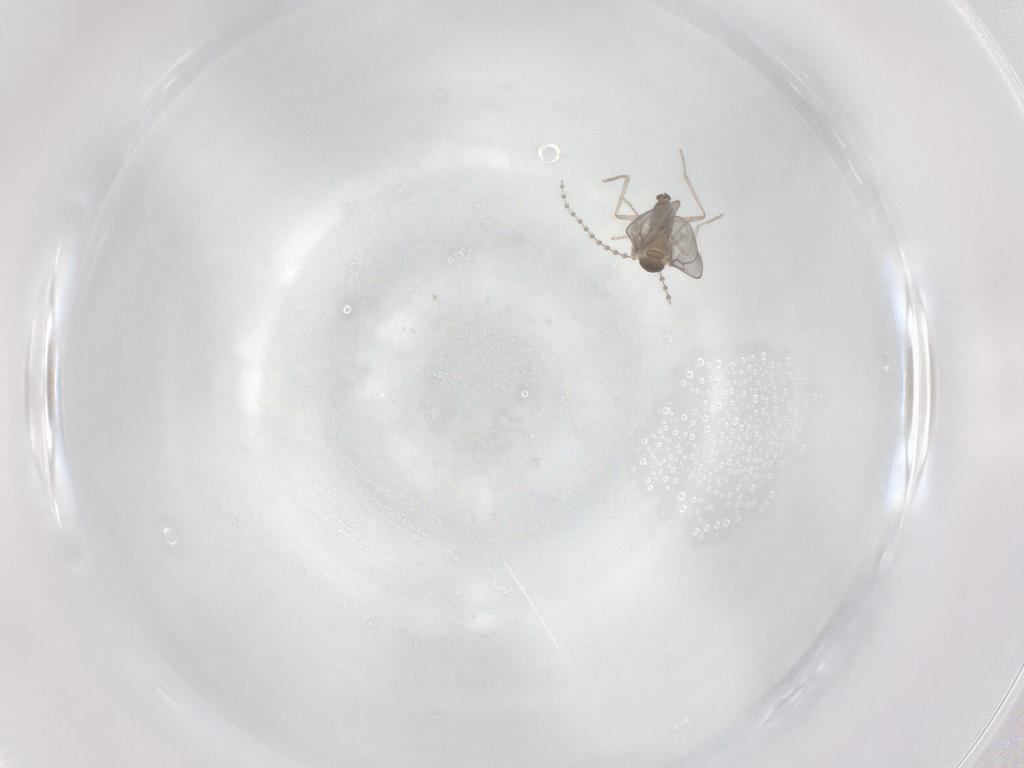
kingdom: Animalia
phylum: Arthropoda
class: Insecta
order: Diptera
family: Cecidomyiidae
